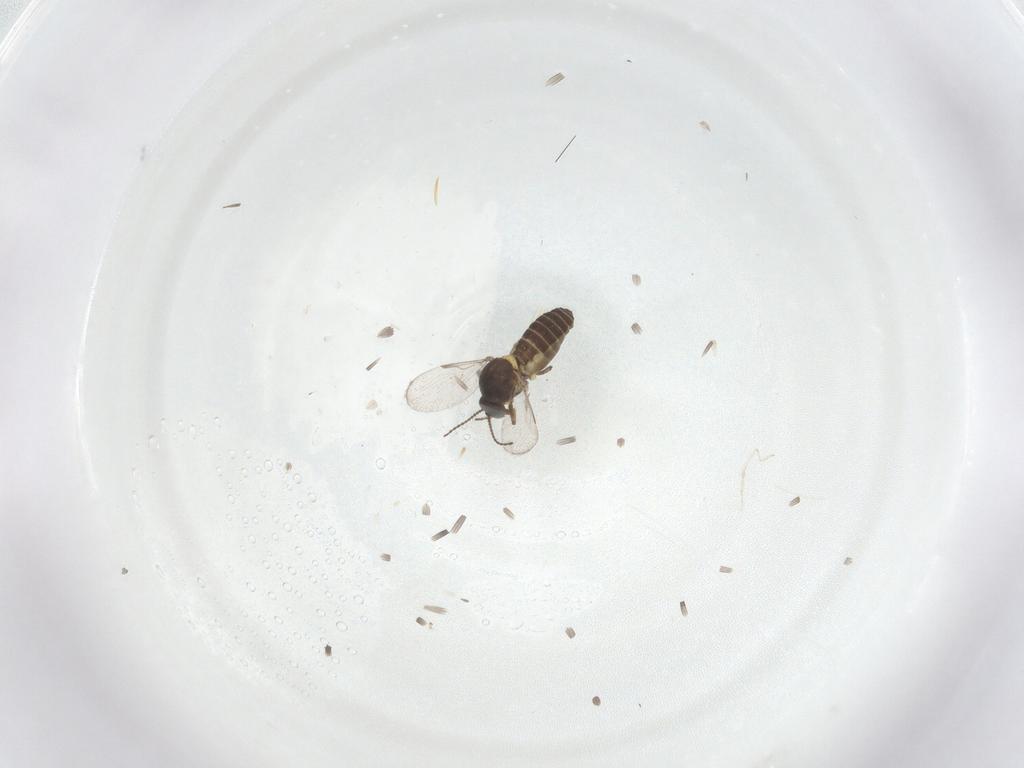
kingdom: Animalia
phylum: Arthropoda
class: Insecta
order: Diptera
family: Ceratopogonidae
